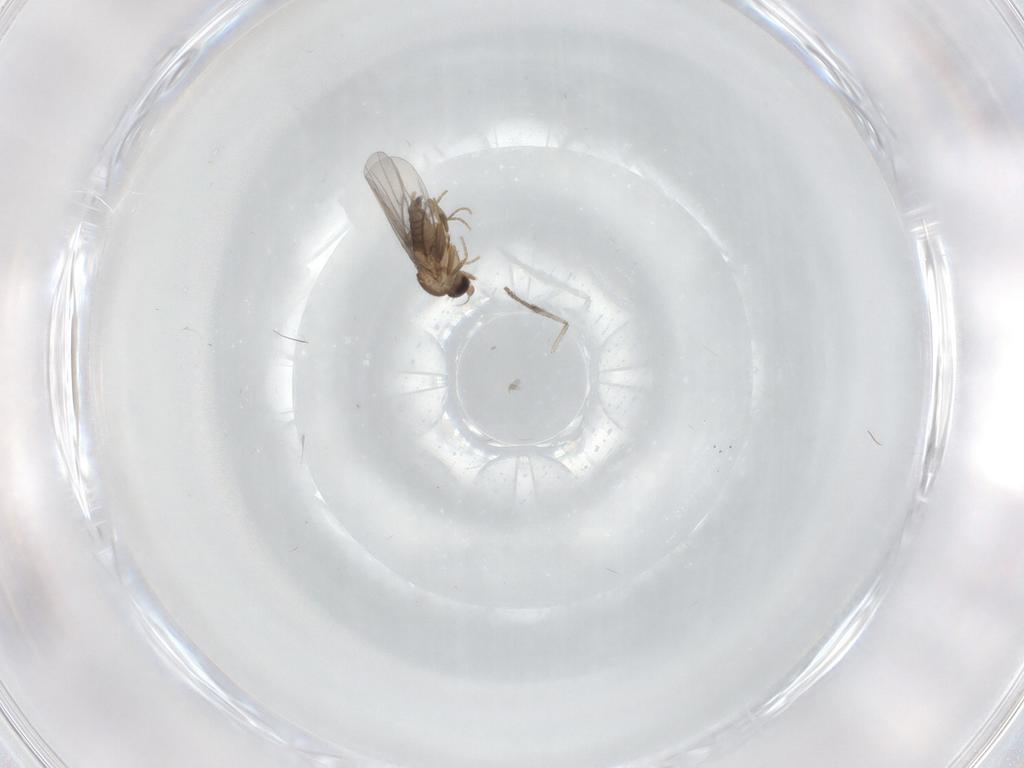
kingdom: Animalia
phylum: Arthropoda
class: Insecta
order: Diptera
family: Psychodidae
